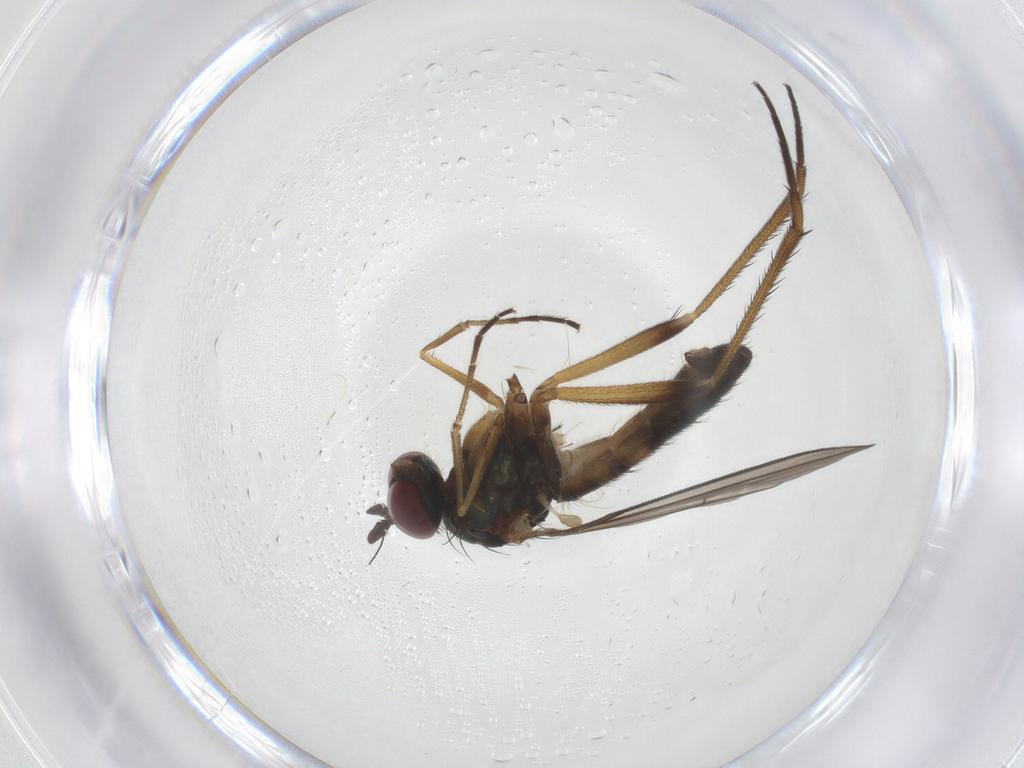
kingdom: Animalia
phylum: Arthropoda
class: Insecta
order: Diptera
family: Dolichopodidae
